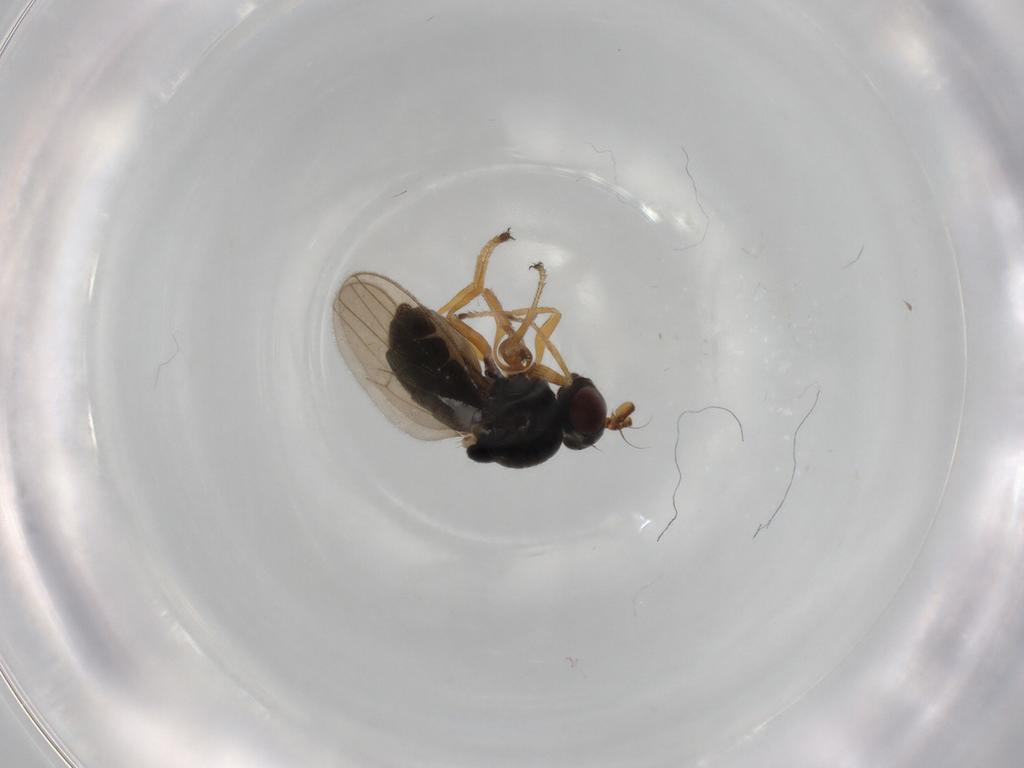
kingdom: Animalia
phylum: Arthropoda
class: Insecta
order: Diptera
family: Ephydridae
